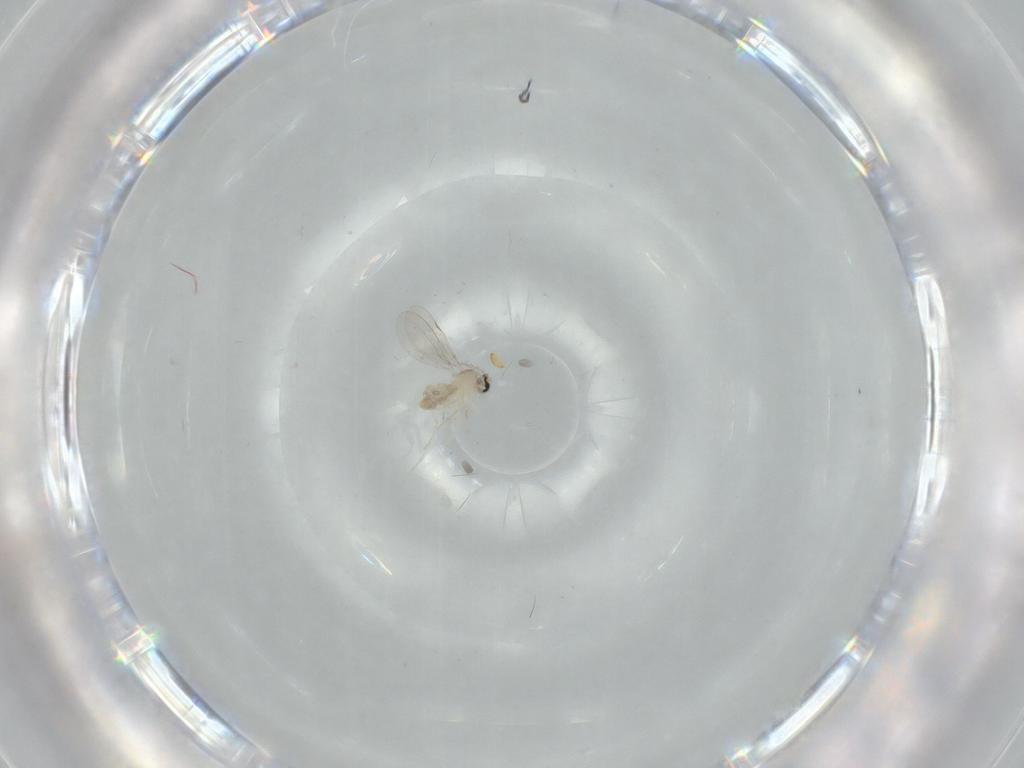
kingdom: Animalia
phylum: Arthropoda
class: Insecta
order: Diptera
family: Cecidomyiidae
